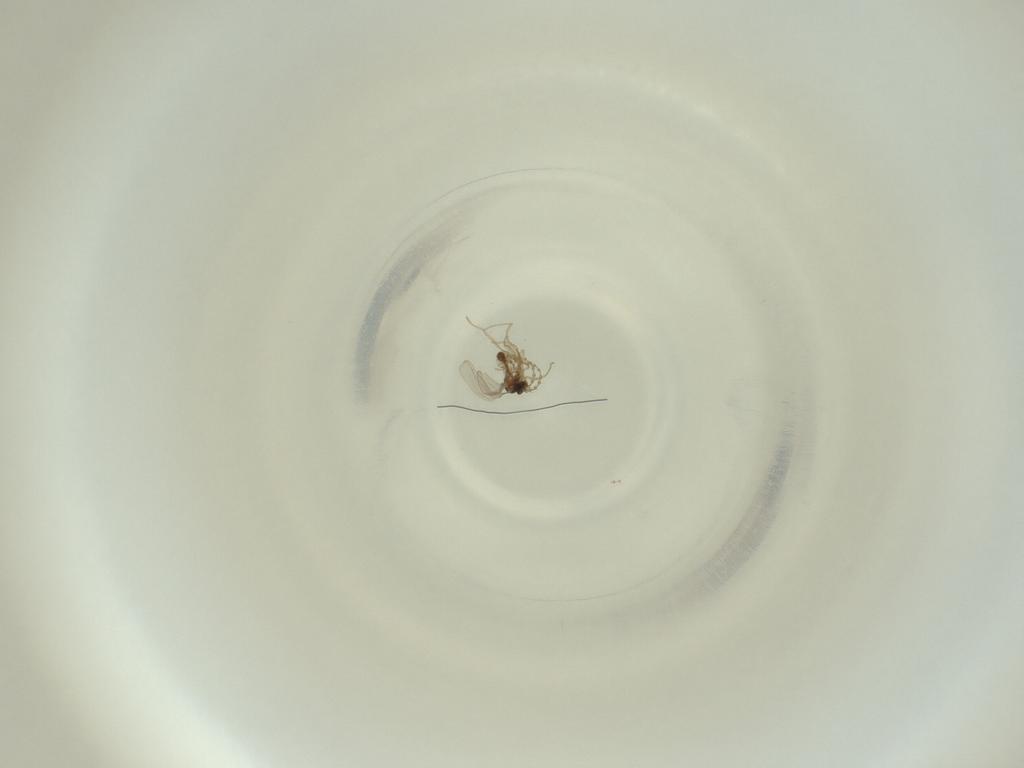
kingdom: Animalia
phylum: Arthropoda
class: Insecta
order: Diptera
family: Cecidomyiidae
